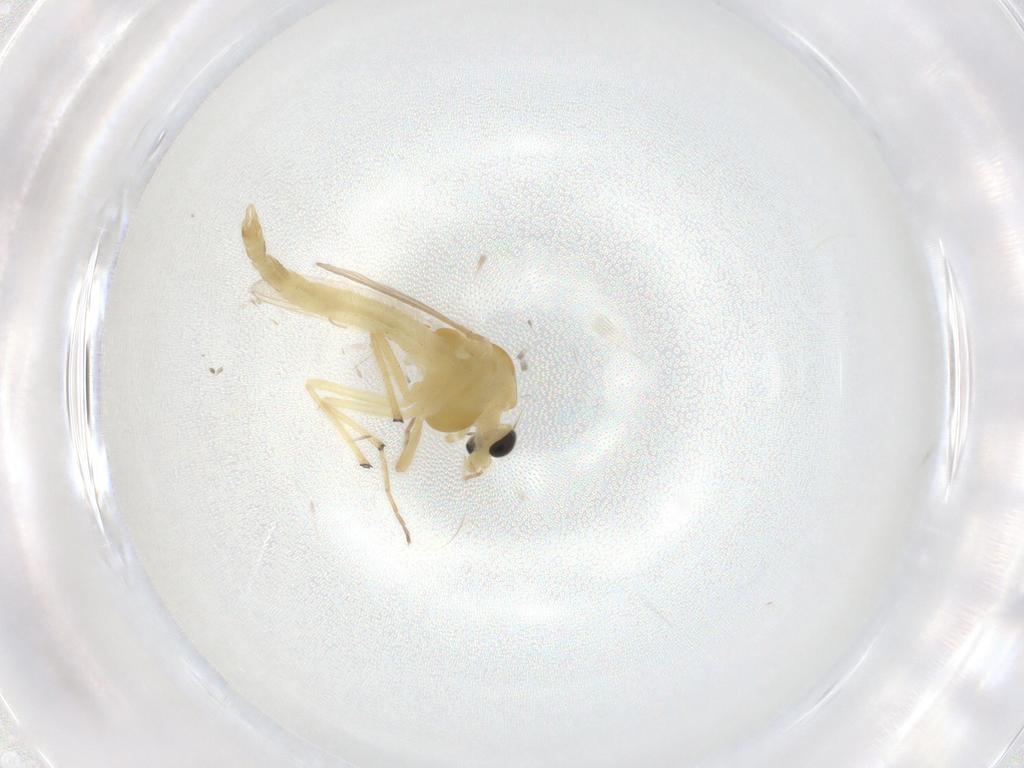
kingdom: Animalia
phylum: Arthropoda
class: Insecta
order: Diptera
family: Chironomidae
